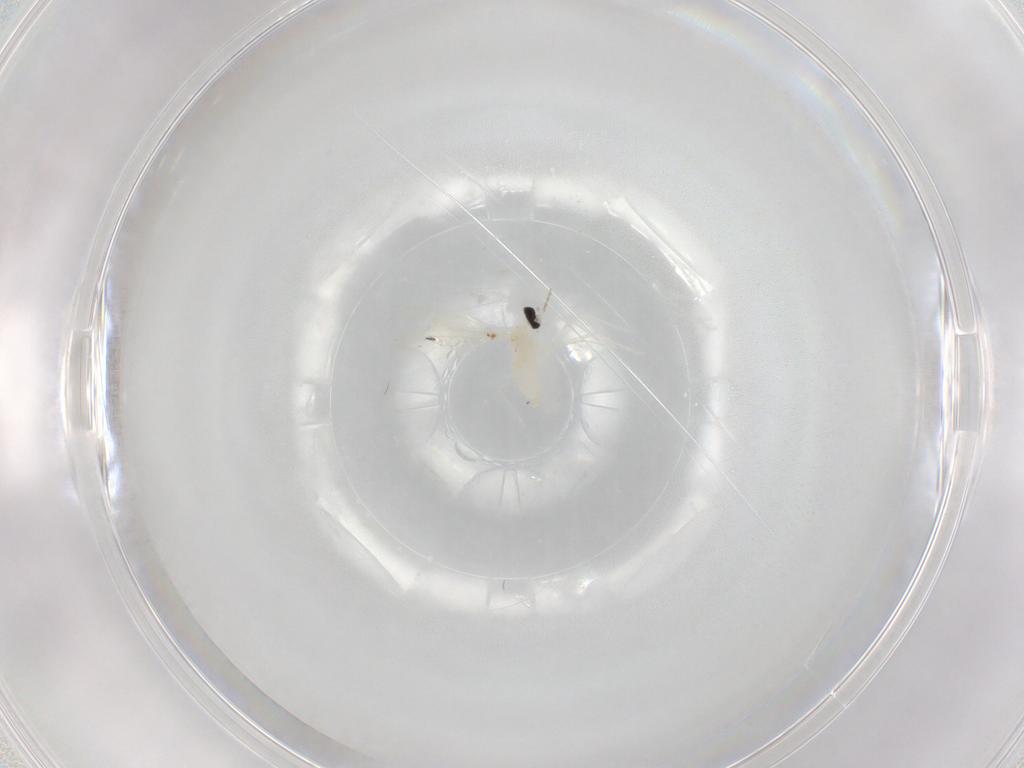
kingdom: Animalia
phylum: Arthropoda
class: Insecta
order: Diptera
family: Cecidomyiidae
